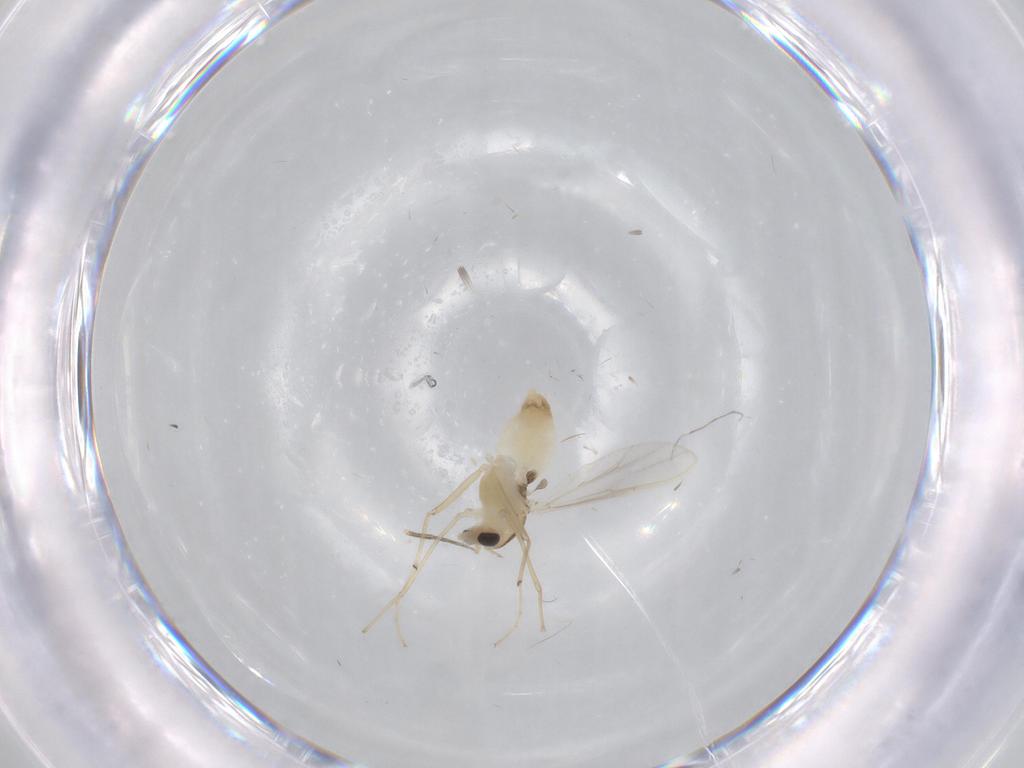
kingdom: Animalia
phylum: Arthropoda
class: Insecta
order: Diptera
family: Chironomidae
